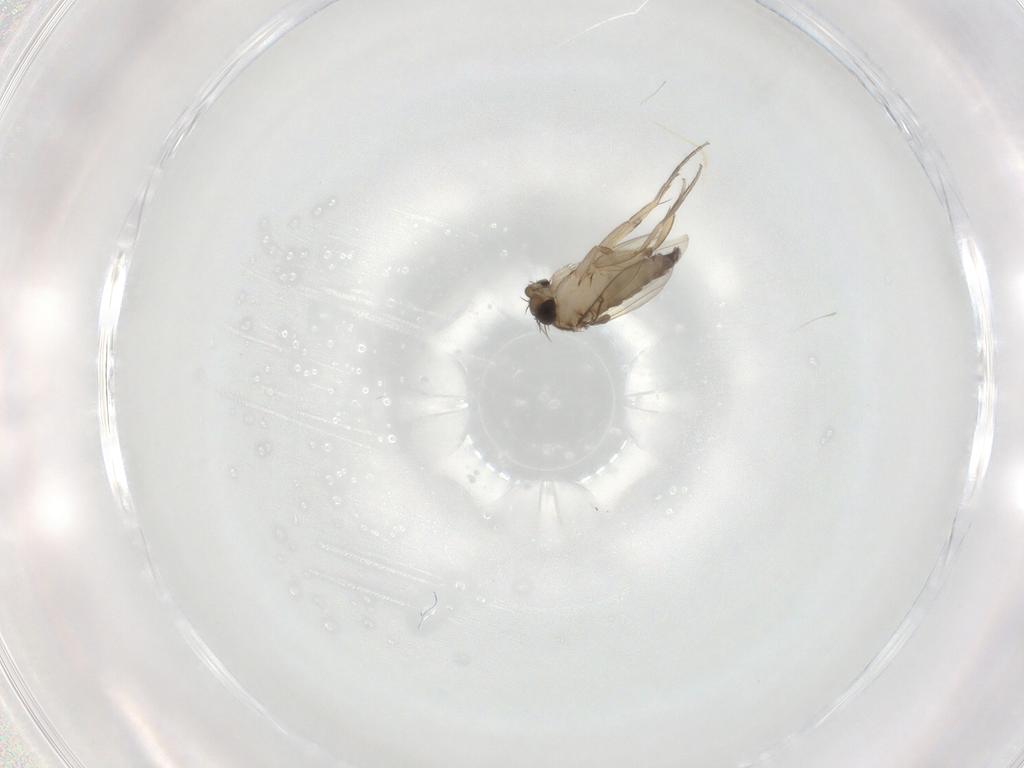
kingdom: Animalia
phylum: Arthropoda
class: Insecta
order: Diptera
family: Cecidomyiidae
